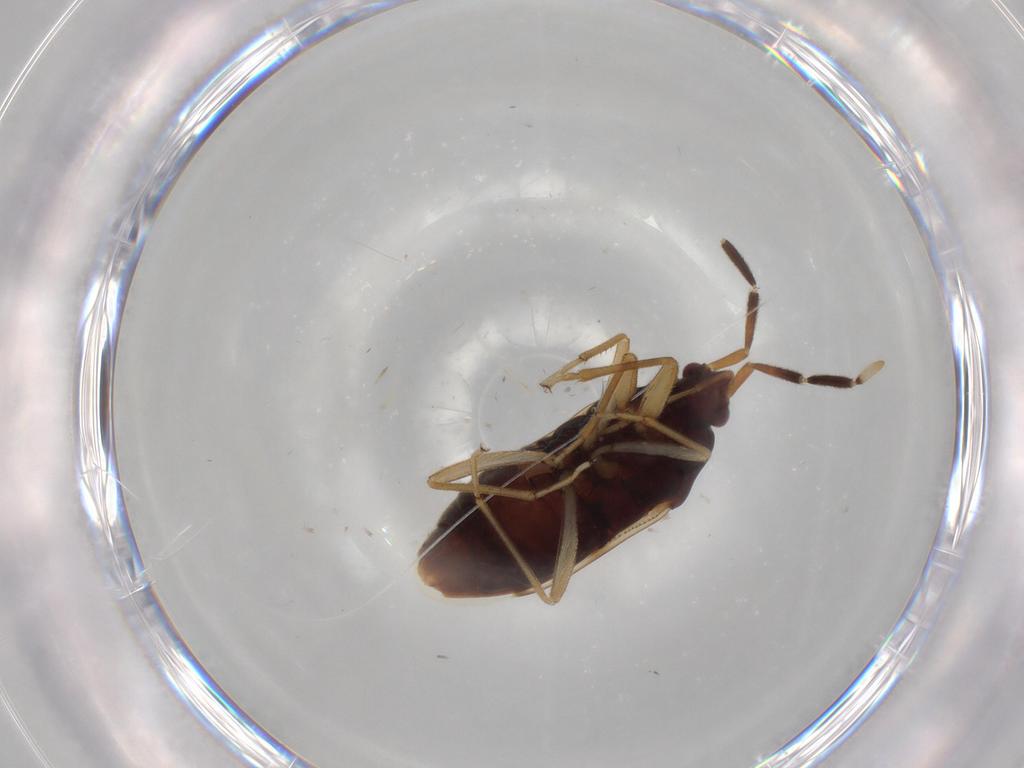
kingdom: Animalia
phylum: Arthropoda
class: Insecta
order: Hemiptera
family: Rhyparochromidae
